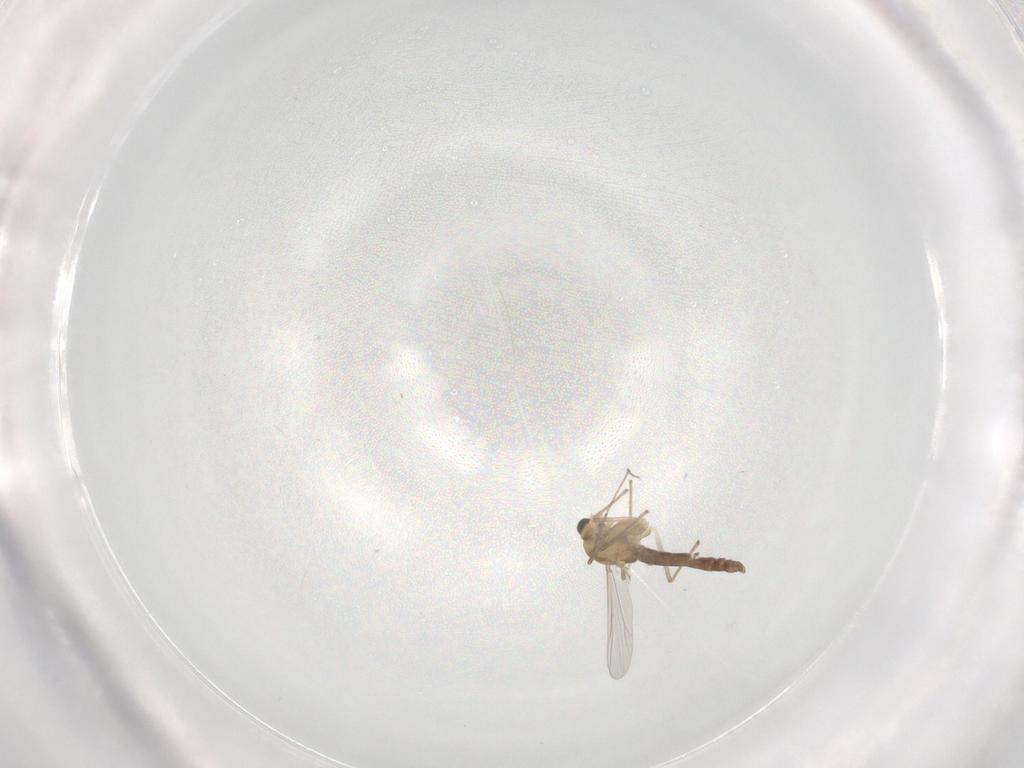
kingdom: Animalia
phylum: Arthropoda
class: Insecta
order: Diptera
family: Chironomidae
